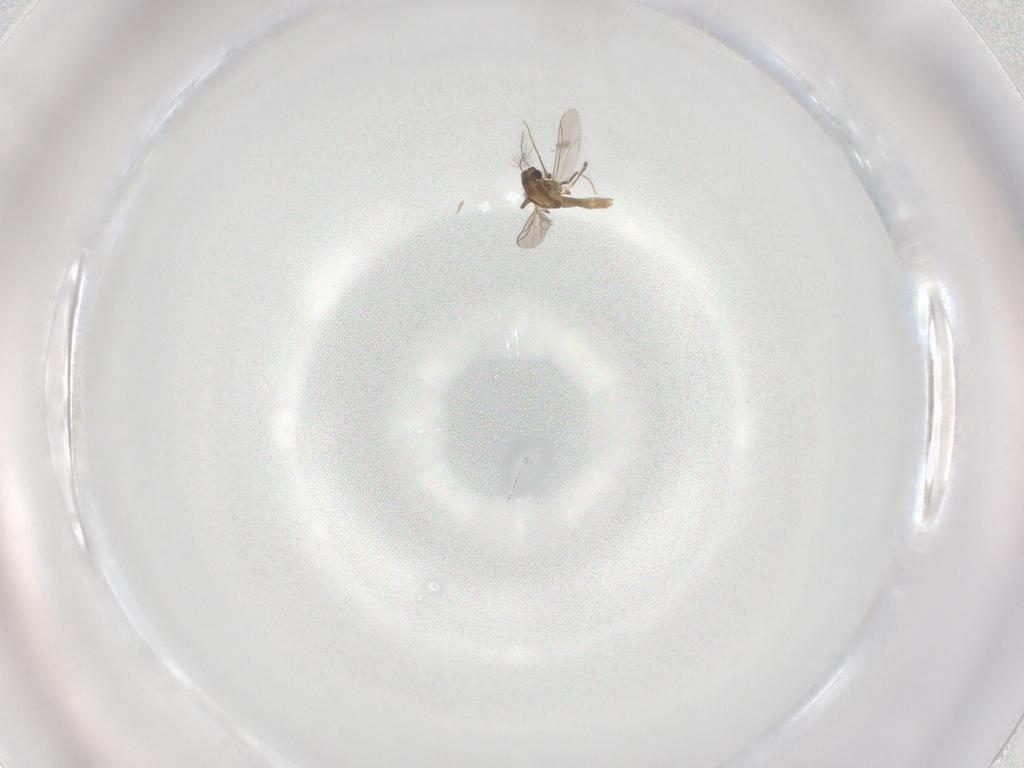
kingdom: Animalia
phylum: Arthropoda
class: Insecta
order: Diptera
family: Chironomidae
